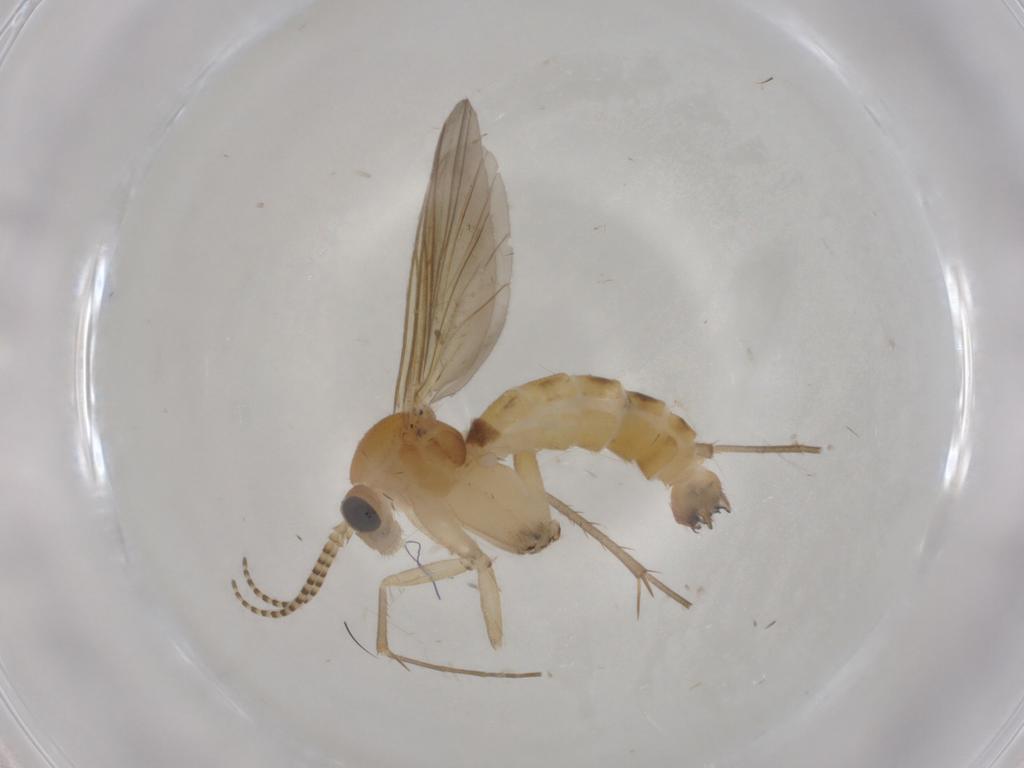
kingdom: Animalia
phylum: Arthropoda
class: Insecta
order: Diptera
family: Mycetophilidae
